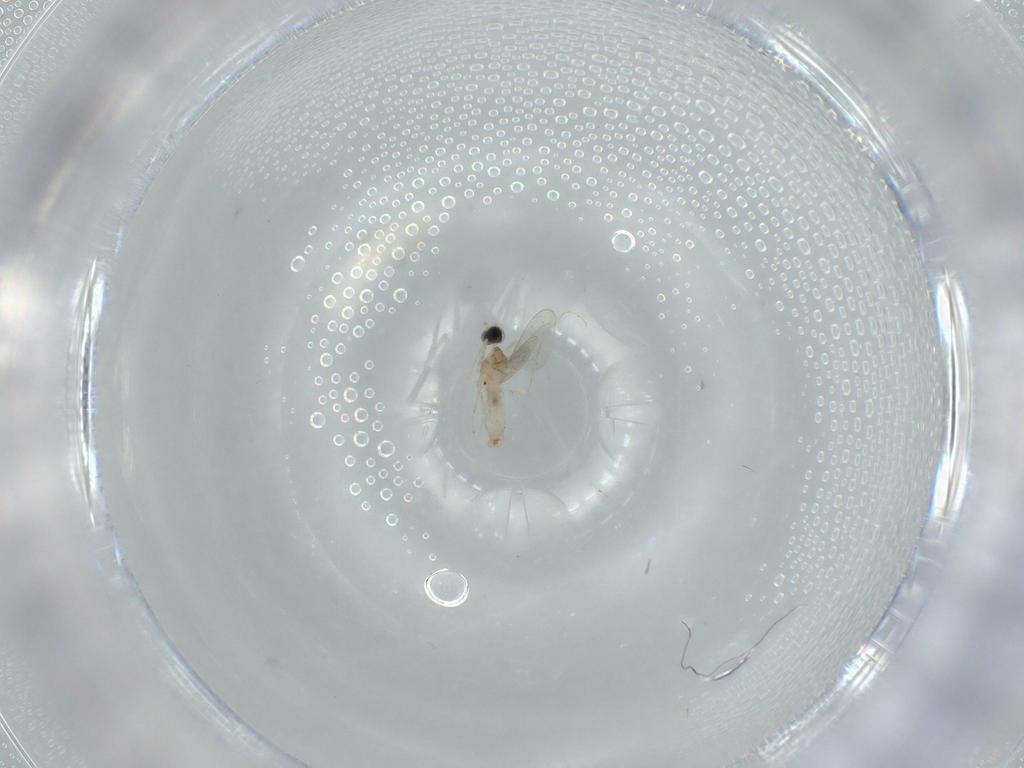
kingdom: Animalia
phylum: Arthropoda
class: Insecta
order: Diptera
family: Cecidomyiidae
